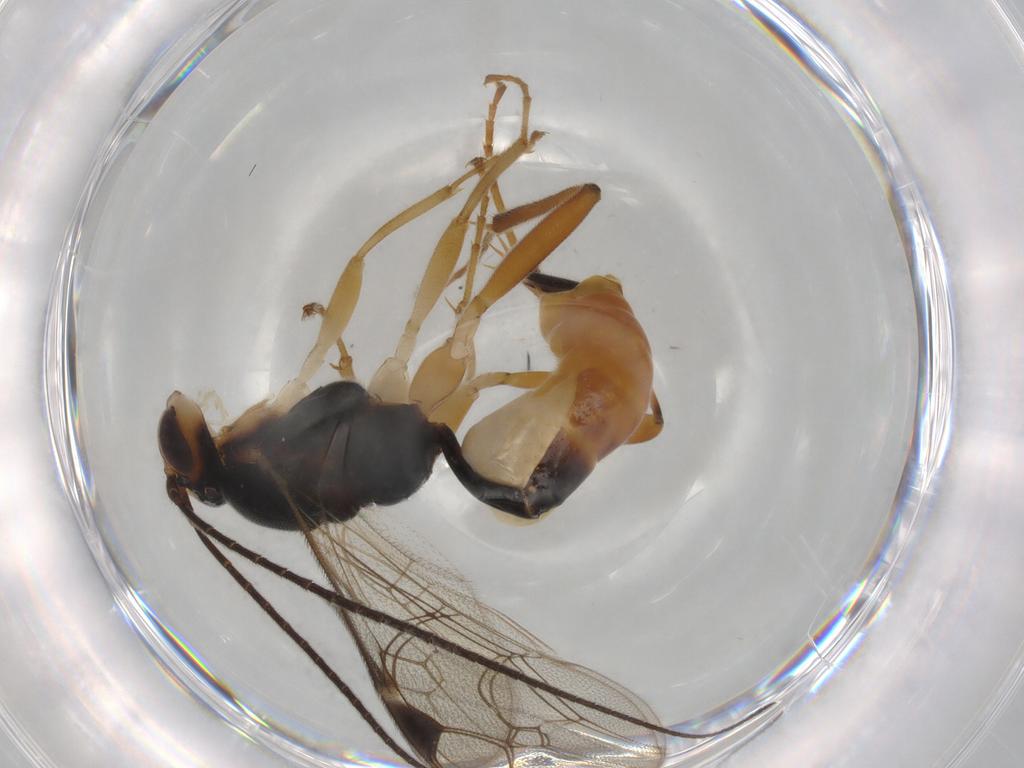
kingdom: Animalia
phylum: Arthropoda
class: Insecta
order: Hymenoptera
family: Ichneumonidae
